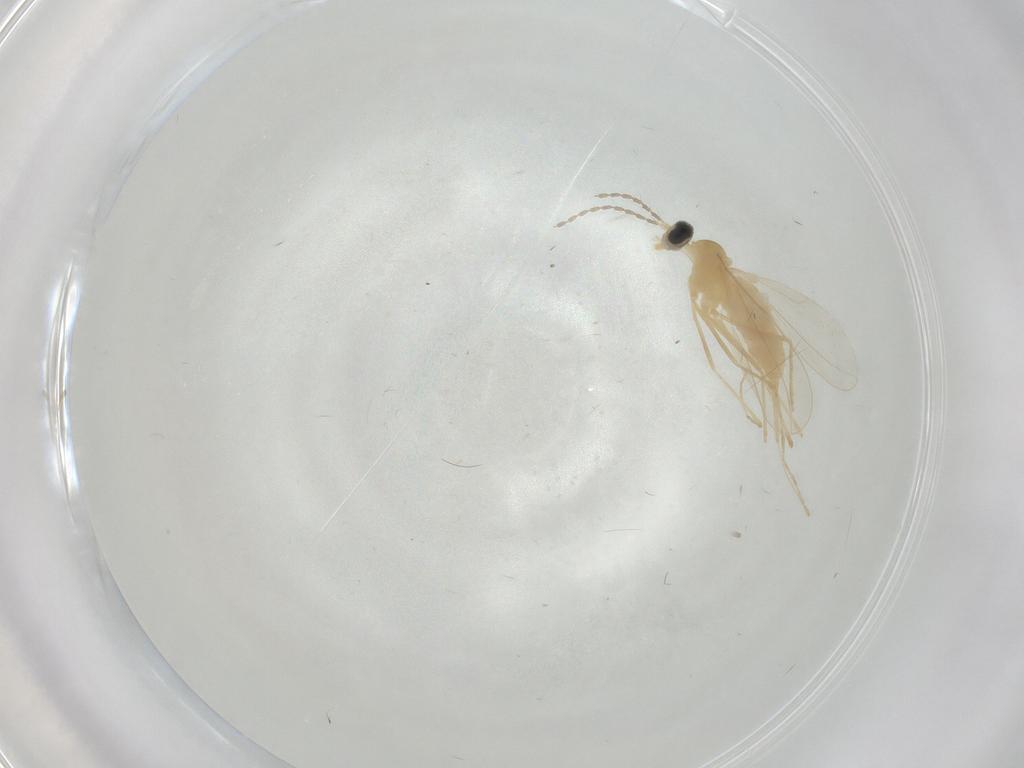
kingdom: Animalia
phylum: Arthropoda
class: Insecta
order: Diptera
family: Cecidomyiidae
